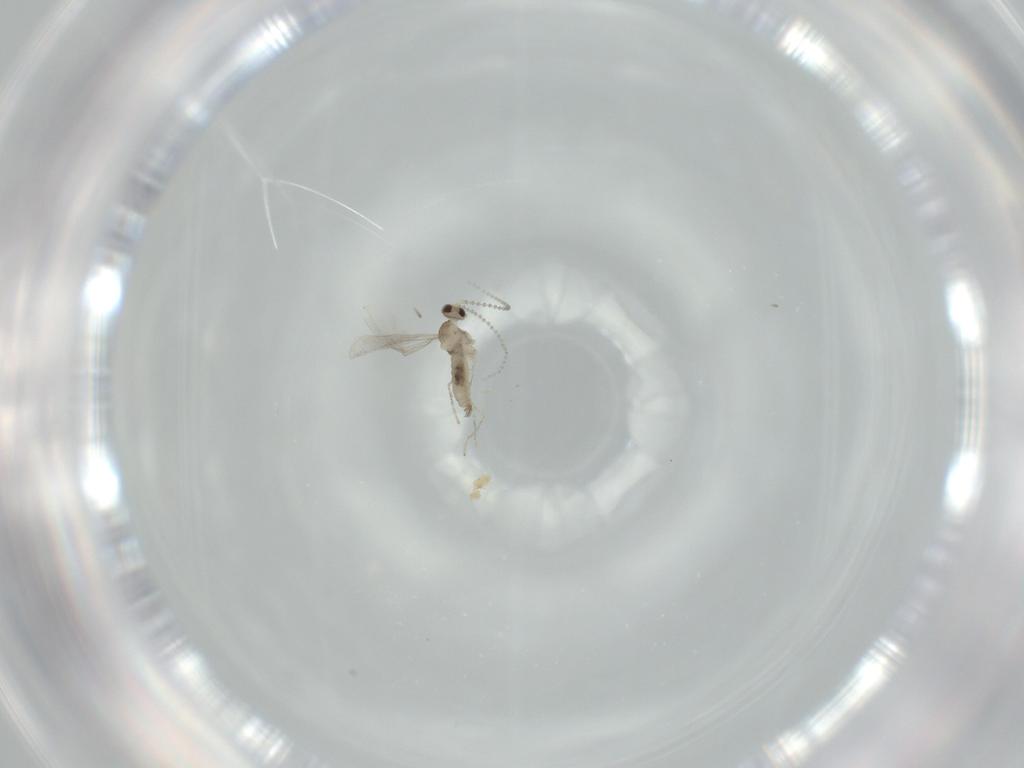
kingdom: Animalia
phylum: Arthropoda
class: Insecta
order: Diptera
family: Cecidomyiidae
